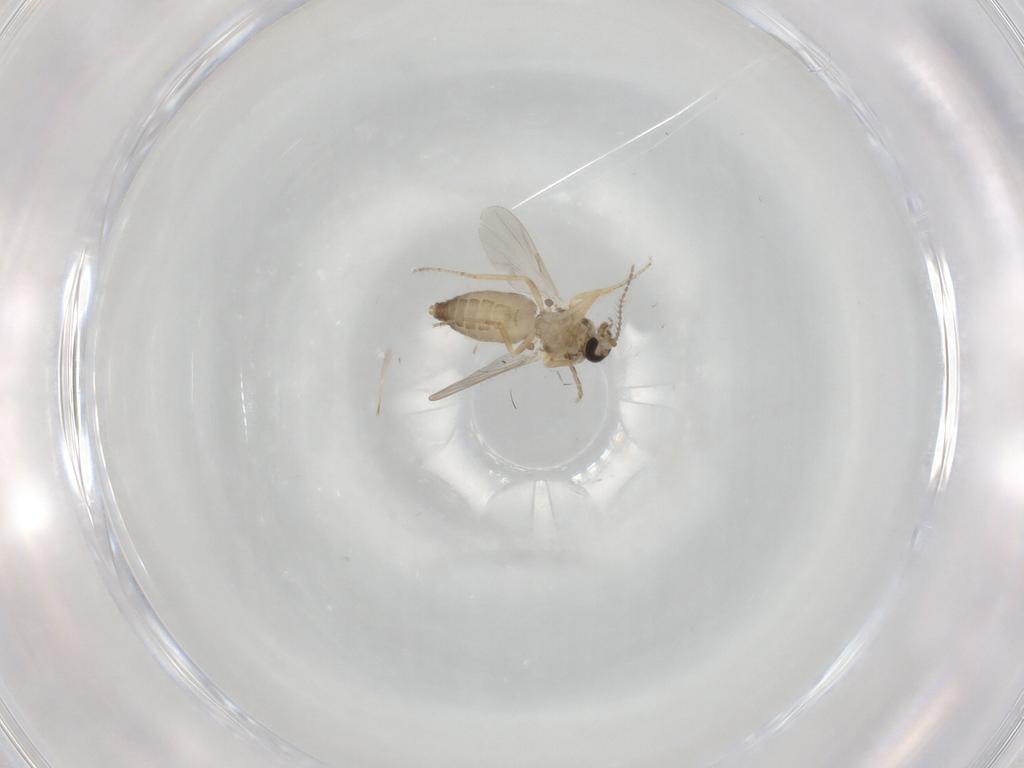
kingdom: Animalia
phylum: Arthropoda
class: Insecta
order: Diptera
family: Ceratopogonidae
